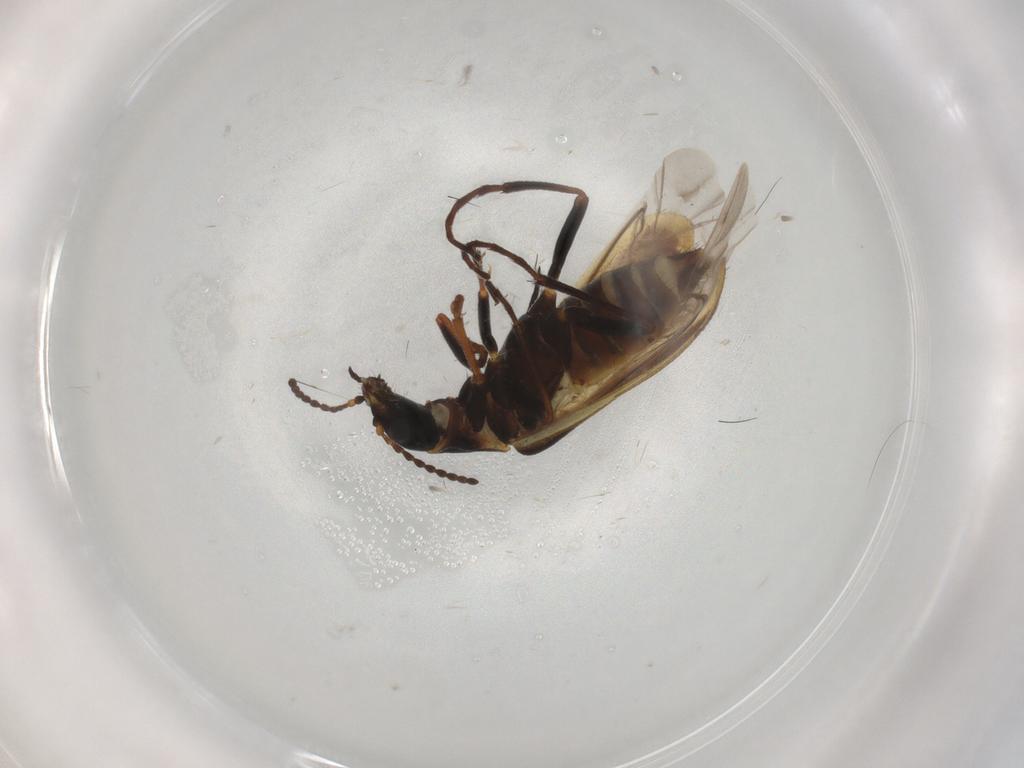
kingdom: Animalia
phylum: Arthropoda
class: Insecta
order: Coleoptera
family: Melyridae
